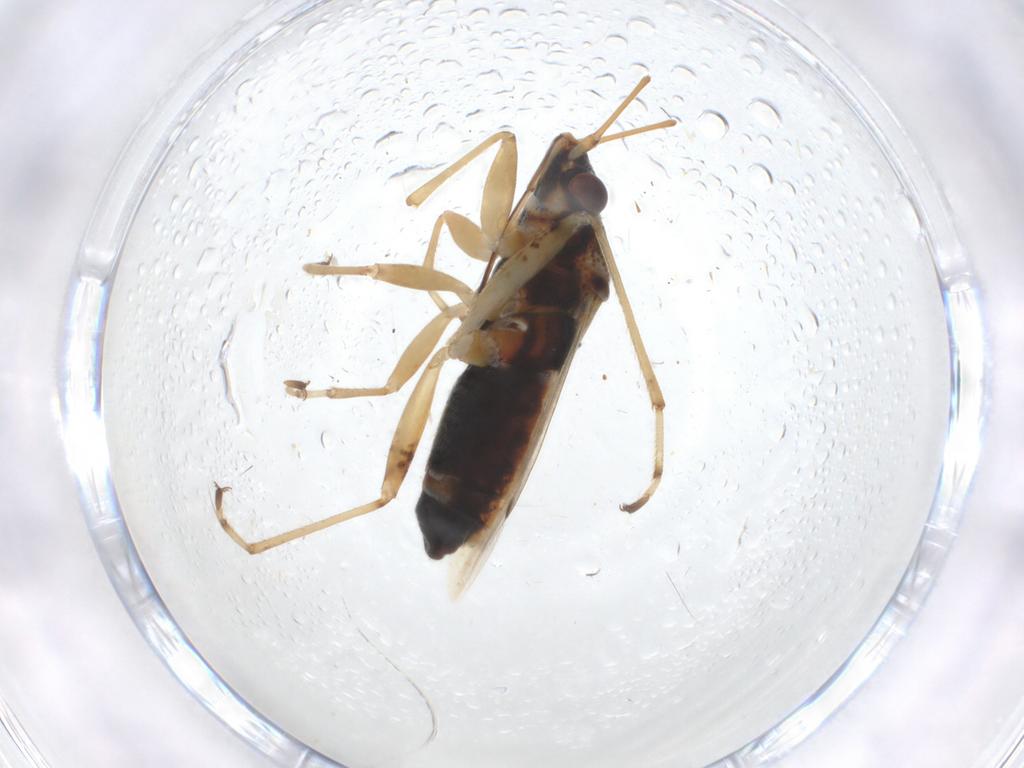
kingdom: Animalia
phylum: Arthropoda
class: Insecta
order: Hemiptera
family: Lygaeidae
